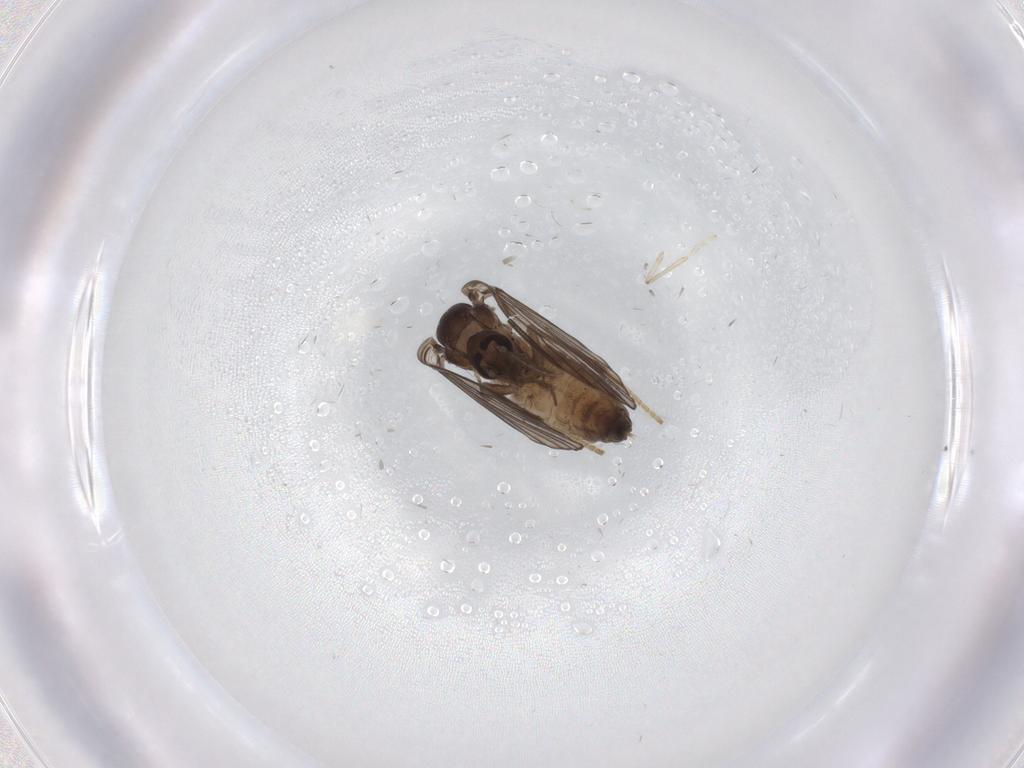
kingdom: Animalia
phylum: Arthropoda
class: Insecta
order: Diptera
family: Psychodidae
